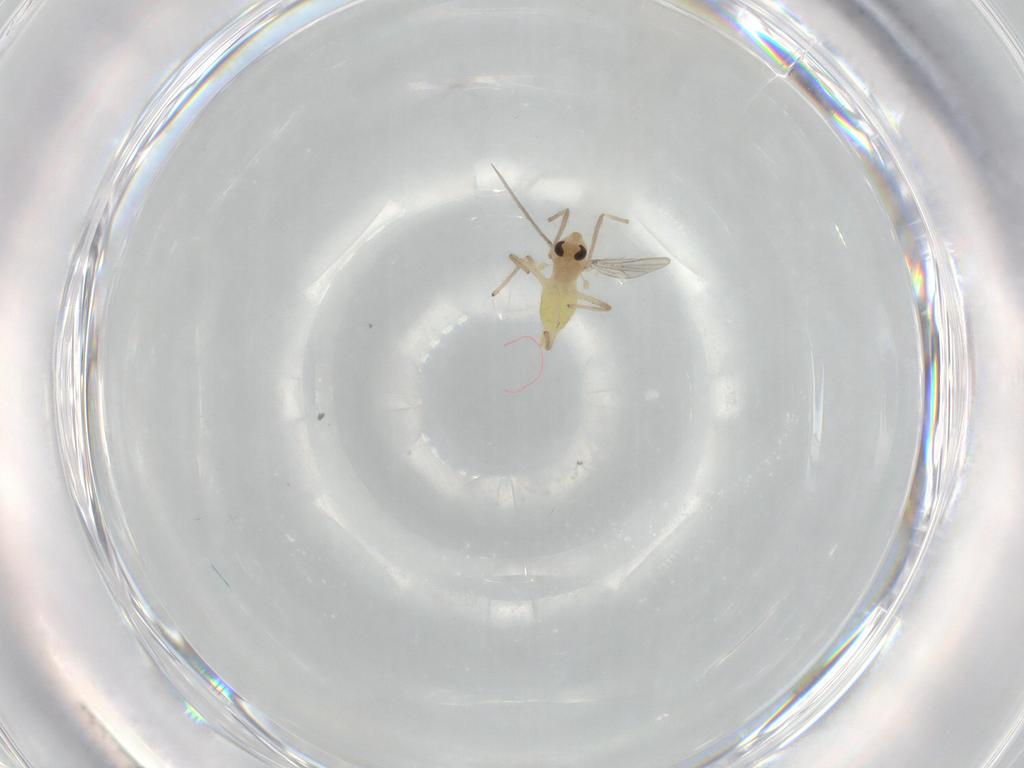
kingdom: Animalia
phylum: Arthropoda
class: Insecta
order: Diptera
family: Chironomidae
